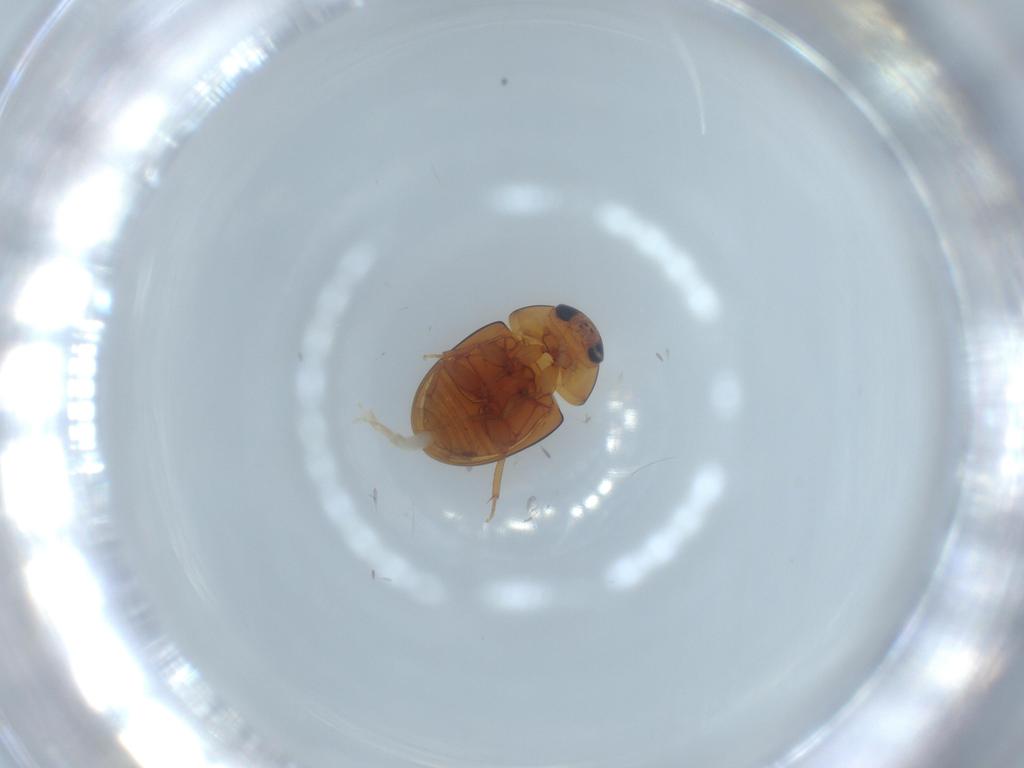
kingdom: Animalia
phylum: Arthropoda
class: Insecta
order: Coleoptera
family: Curculionidae
